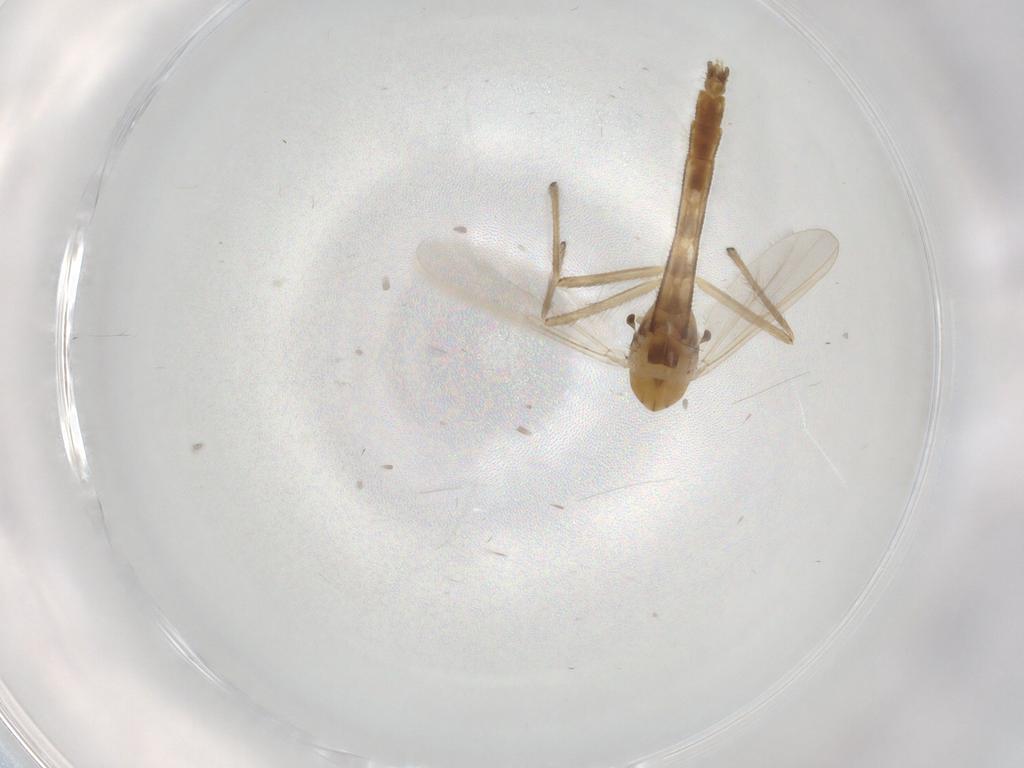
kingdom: Animalia
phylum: Arthropoda
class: Insecta
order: Diptera
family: Chironomidae
